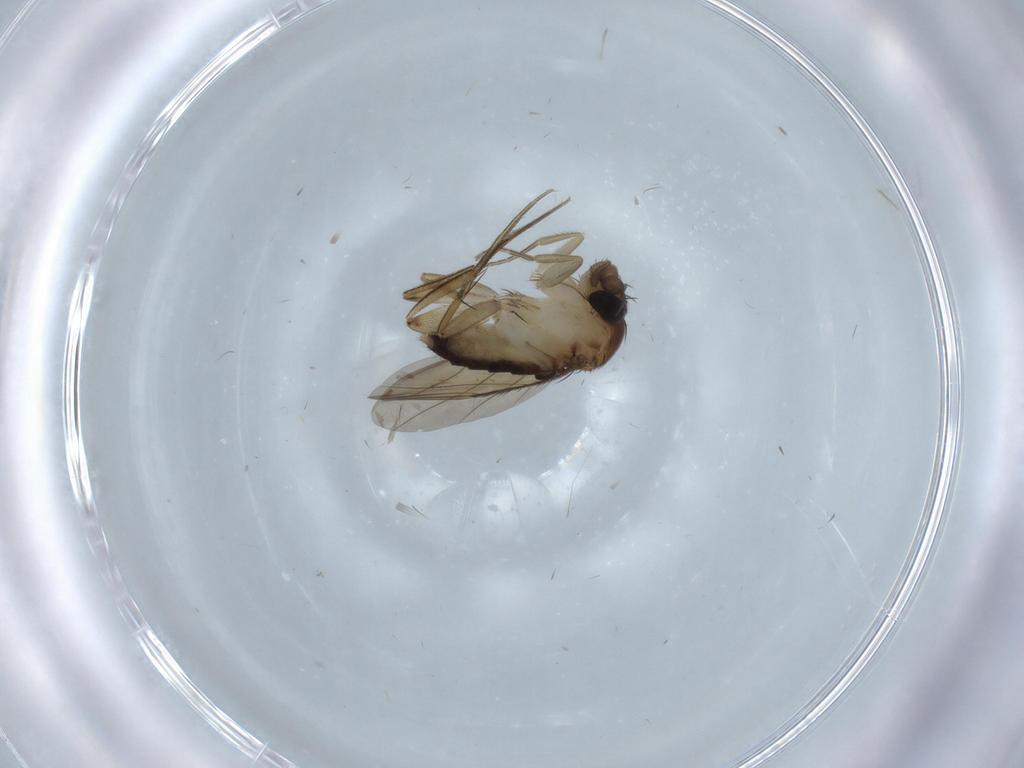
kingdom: Animalia
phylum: Arthropoda
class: Insecta
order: Diptera
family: Phoridae
